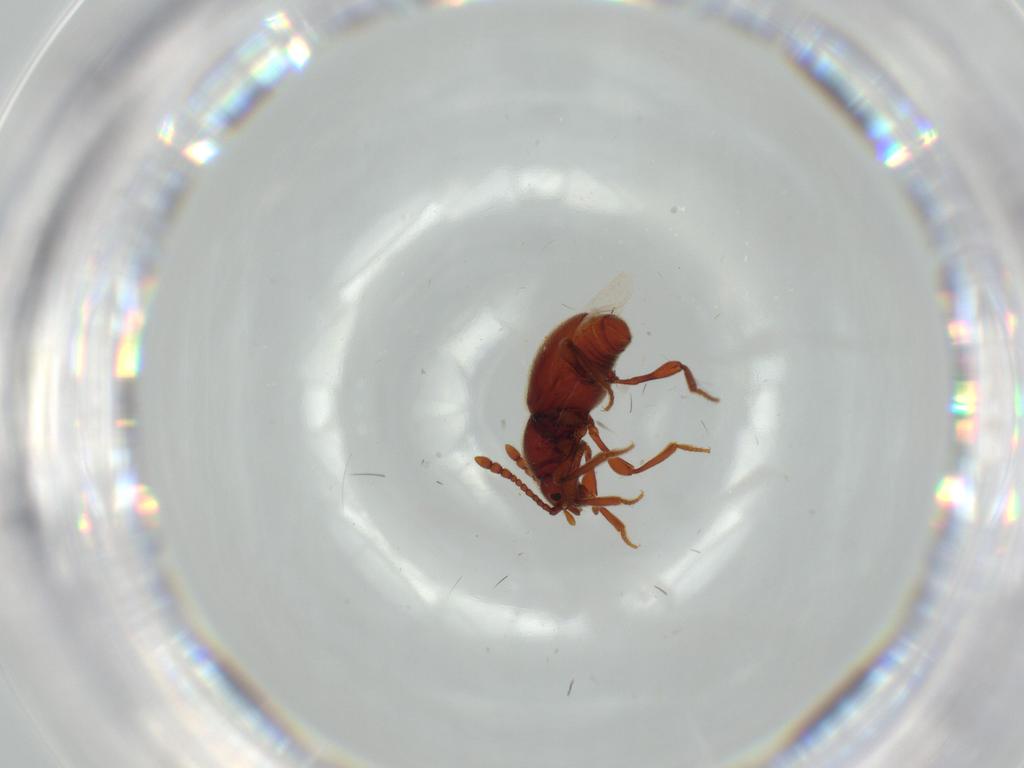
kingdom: Animalia
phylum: Arthropoda
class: Insecta
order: Coleoptera
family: Staphylinidae
